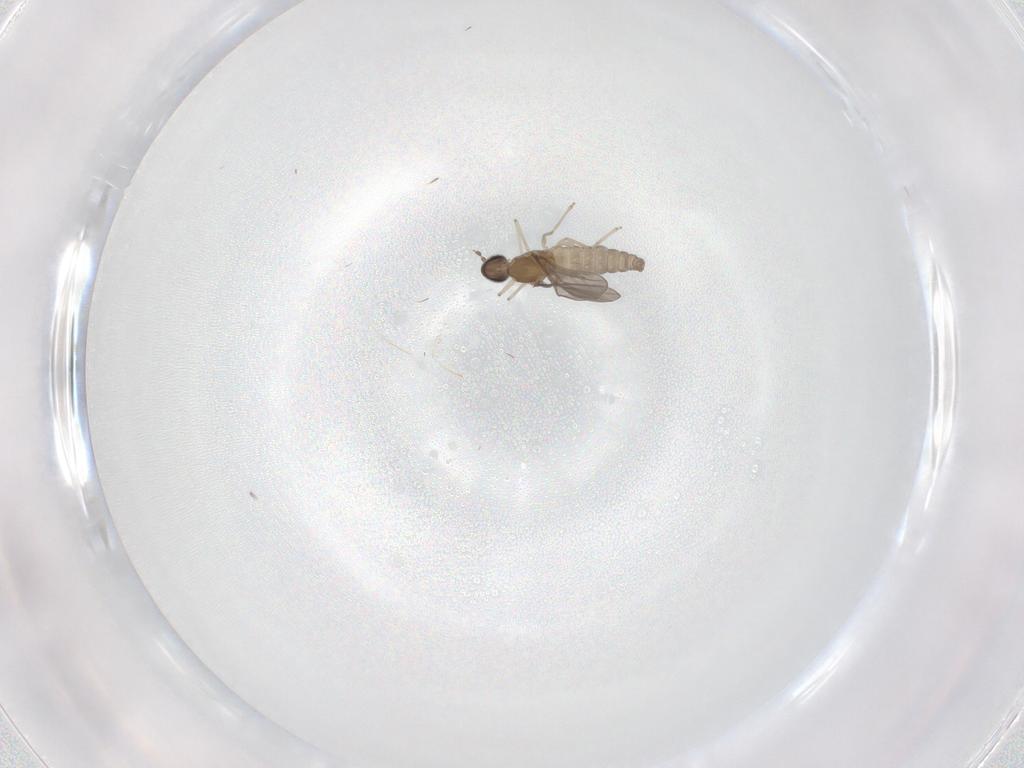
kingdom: Animalia
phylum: Arthropoda
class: Insecta
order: Diptera
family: Cecidomyiidae
